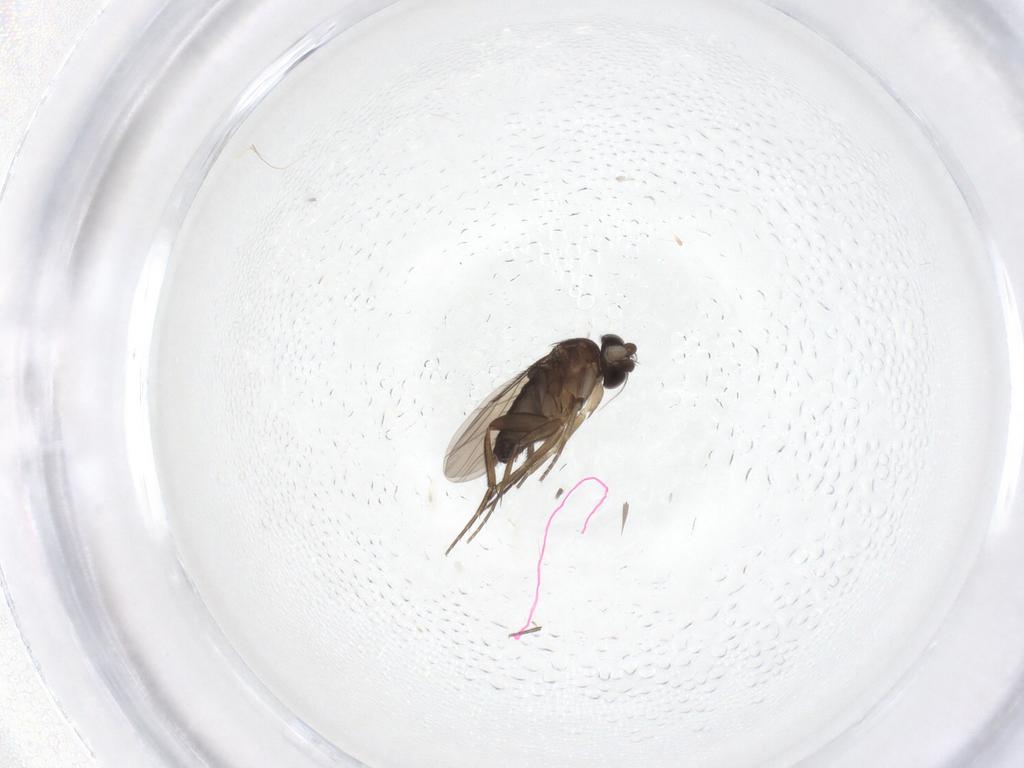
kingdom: Animalia
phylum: Arthropoda
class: Insecta
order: Diptera
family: Phoridae
